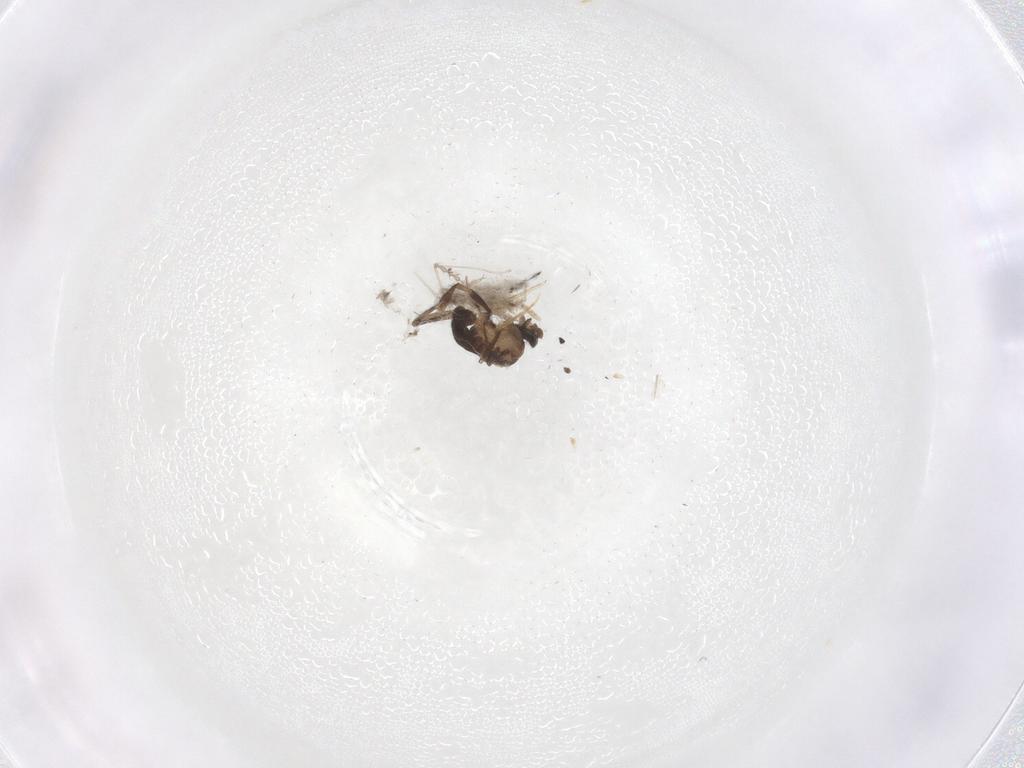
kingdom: Animalia
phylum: Arthropoda
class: Insecta
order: Diptera
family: Phoridae
